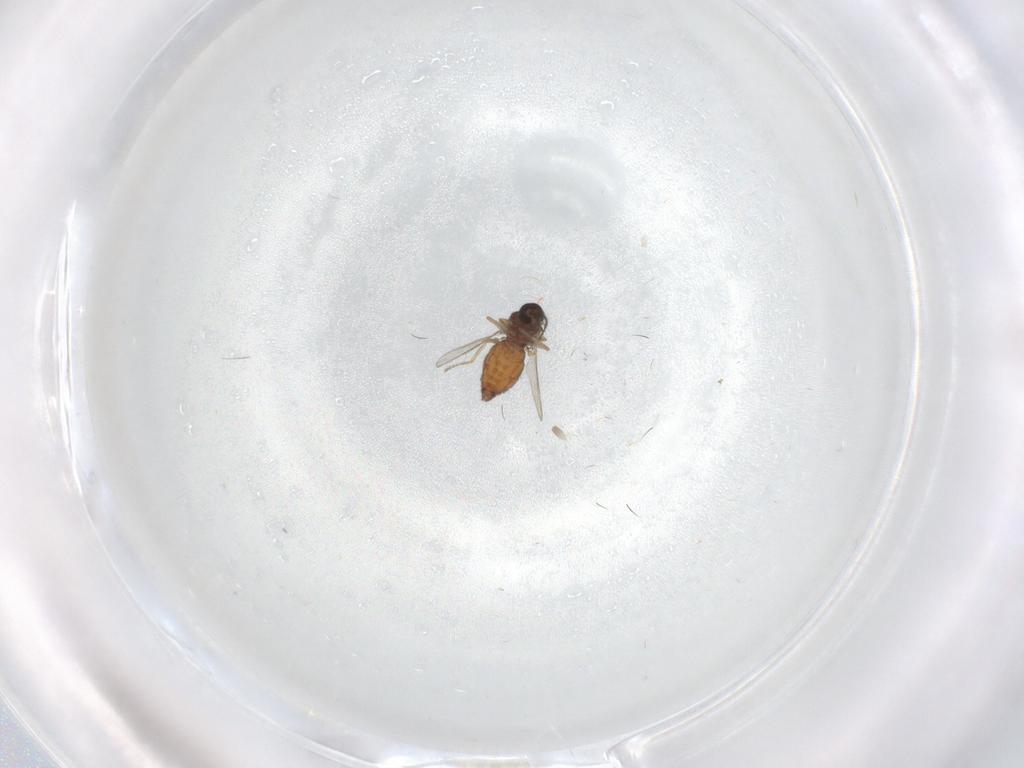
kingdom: Animalia
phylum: Arthropoda
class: Insecta
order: Diptera
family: Ceratopogonidae
